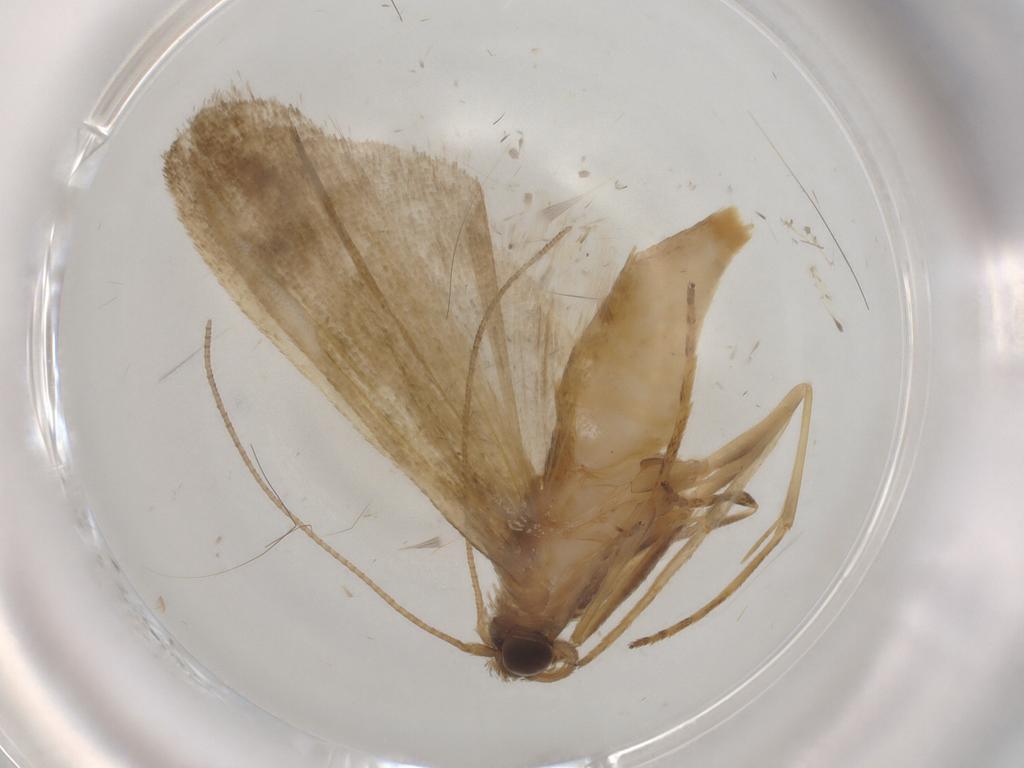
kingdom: Animalia
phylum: Arthropoda
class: Insecta
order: Lepidoptera
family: Noctuidae
